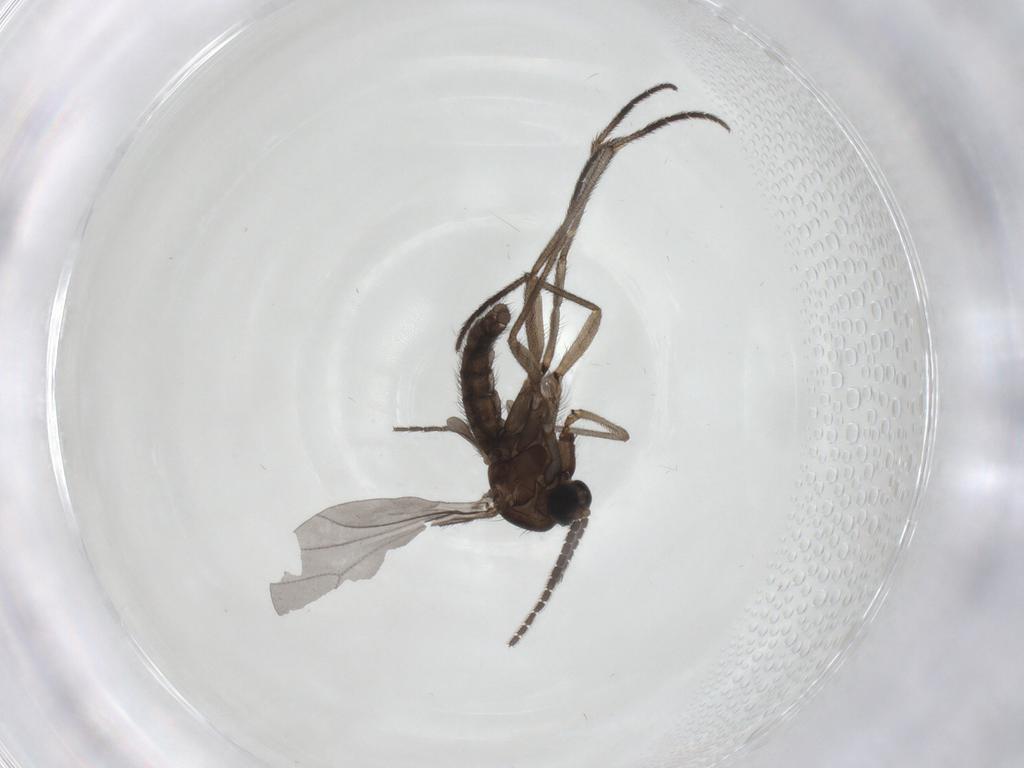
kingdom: Animalia
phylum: Arthropoda
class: Insecta
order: Diptera
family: Sciaridae
